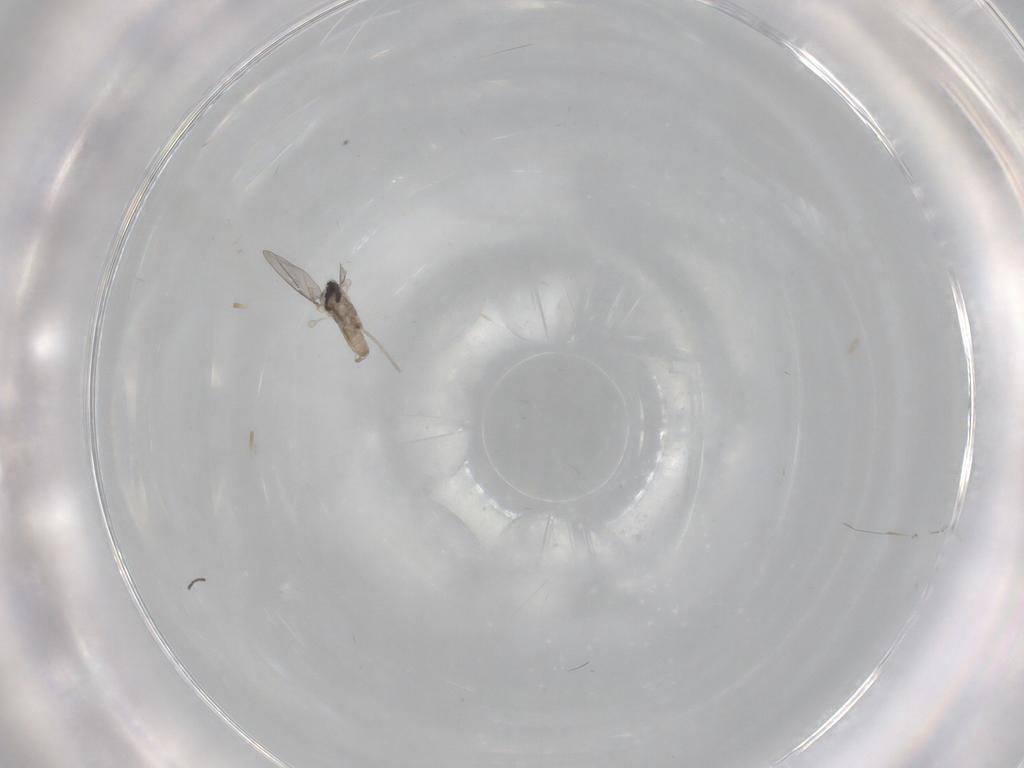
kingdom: Animalia
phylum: Arthropoda
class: Insecta
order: Diptera
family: Cecidomyiidae
